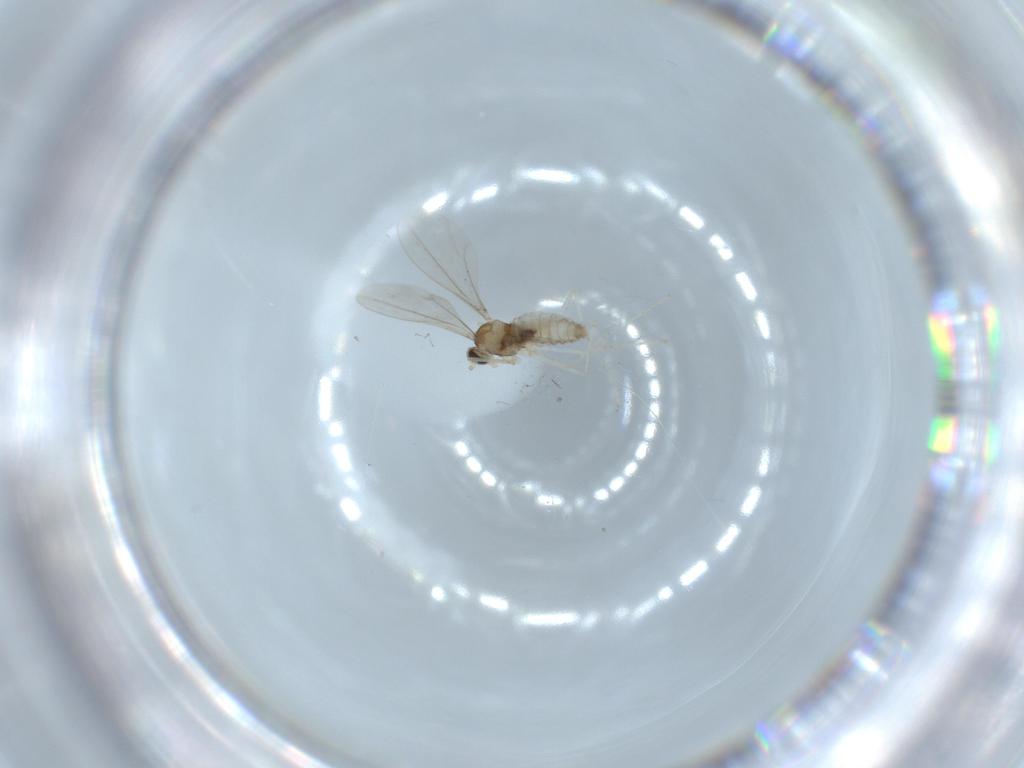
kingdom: Animalia
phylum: Arthropoda
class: Insecta
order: Diptera
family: Cecidomyiidae
